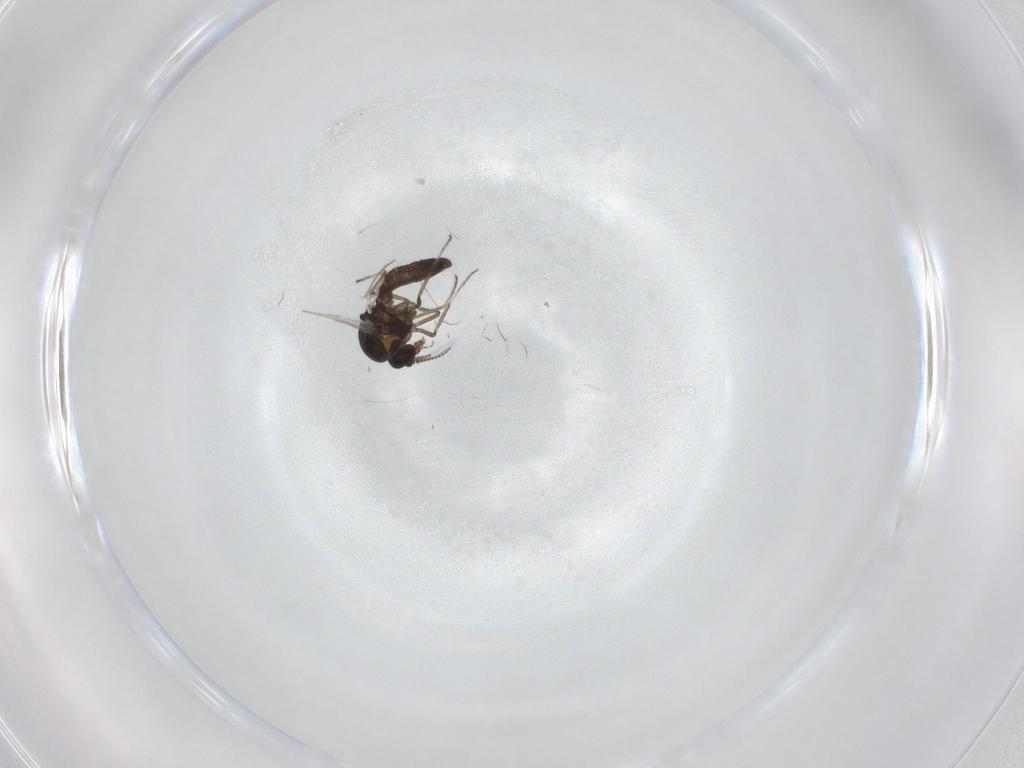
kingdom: Animalia
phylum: Arthropoda
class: Insecta
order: Diptera
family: Ceratopogonidae
